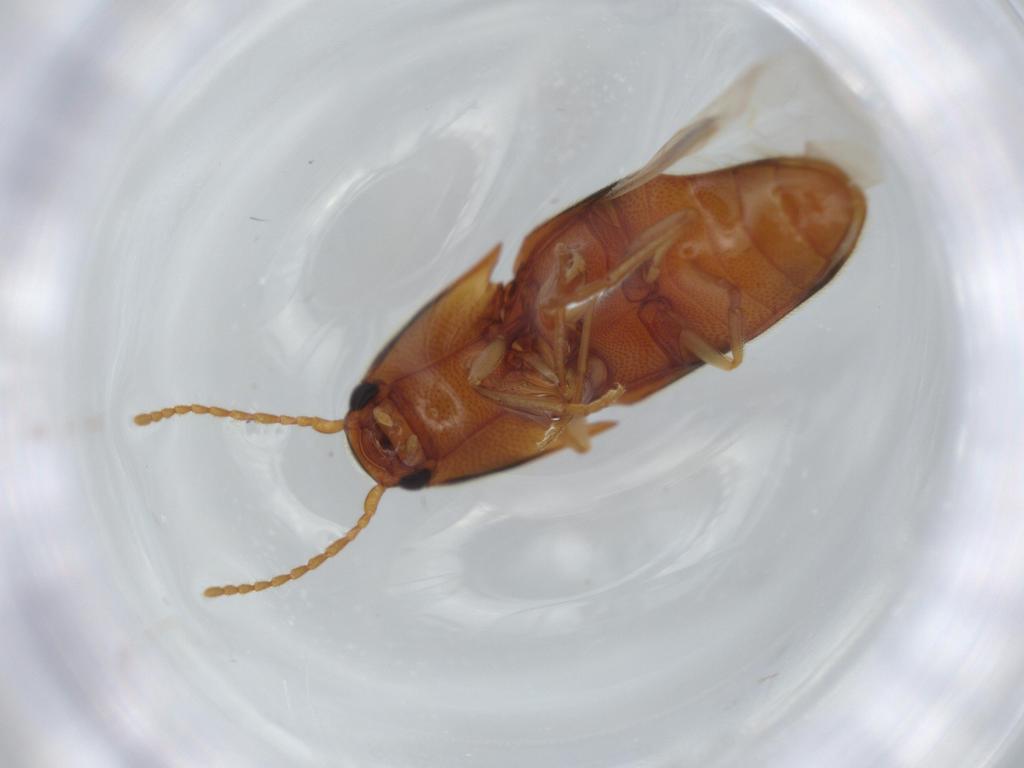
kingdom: Animalia
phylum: Arthropoda
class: Insecta
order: Coleoptera
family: Elateridae
